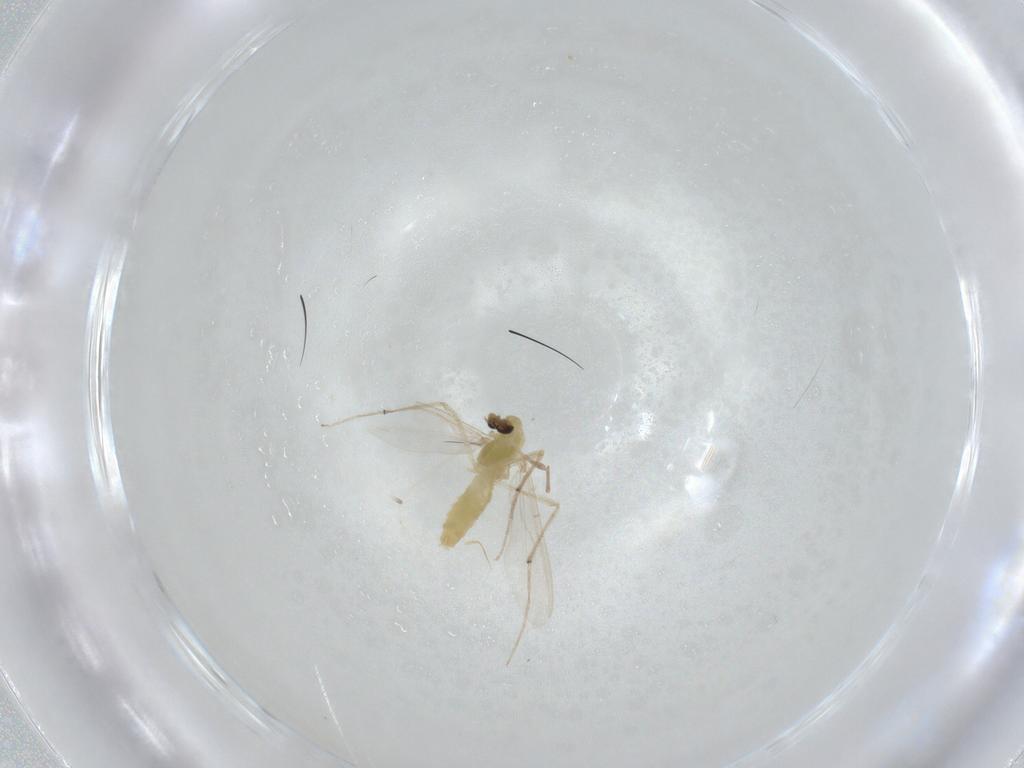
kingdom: Animalia
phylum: Arthropoda
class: Insecta
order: Diptera
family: Chironomidae
